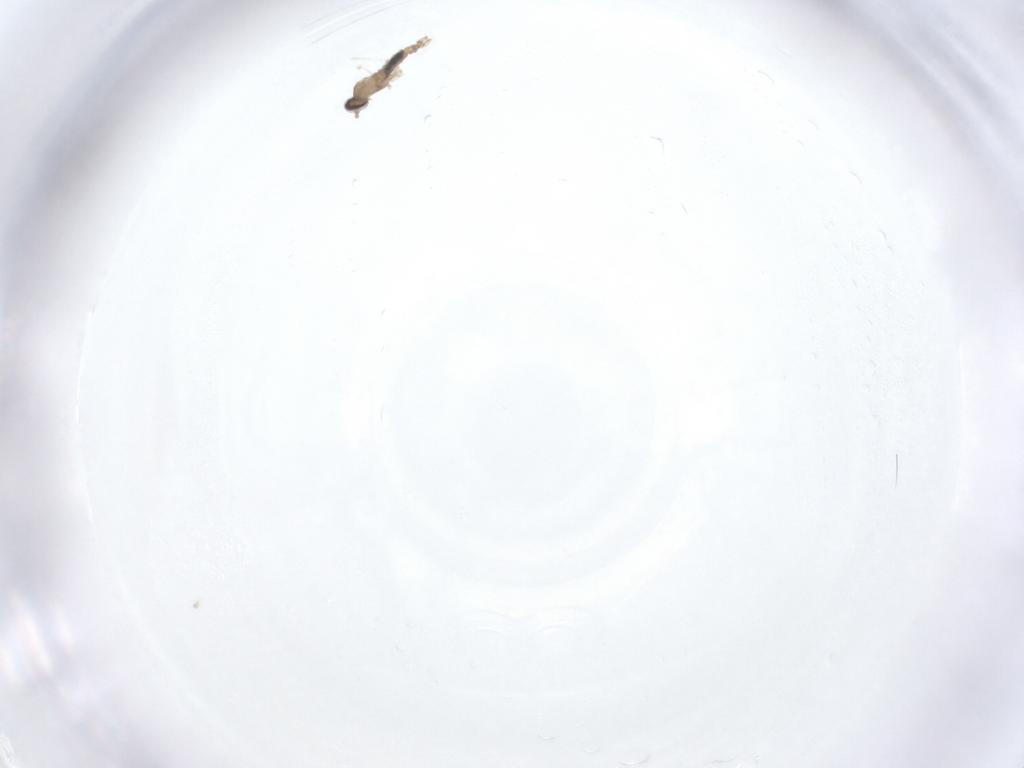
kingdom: Animalia
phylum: Arthropoda
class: Insecta
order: Diptera
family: Cecidomyiidae
